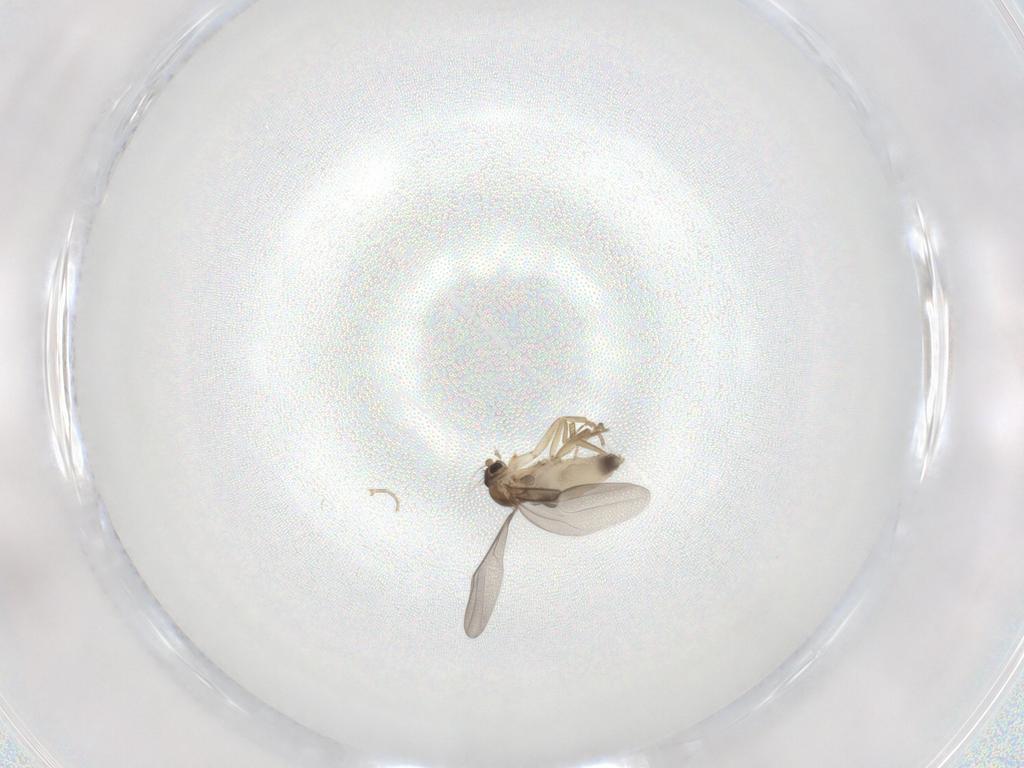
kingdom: Animalia
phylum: Arthropoda
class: Insecta
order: Diptera
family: Phoridae
